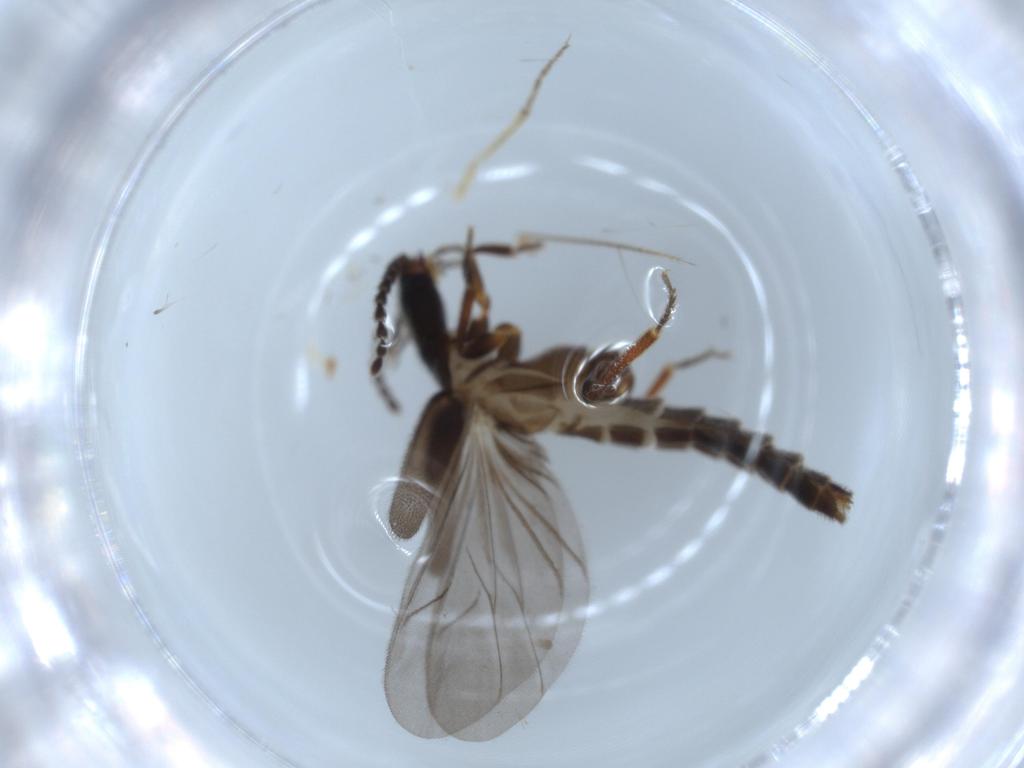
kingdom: Animalia
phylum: Arthropoda
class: Insecta
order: Coleoptera
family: Omethidae
